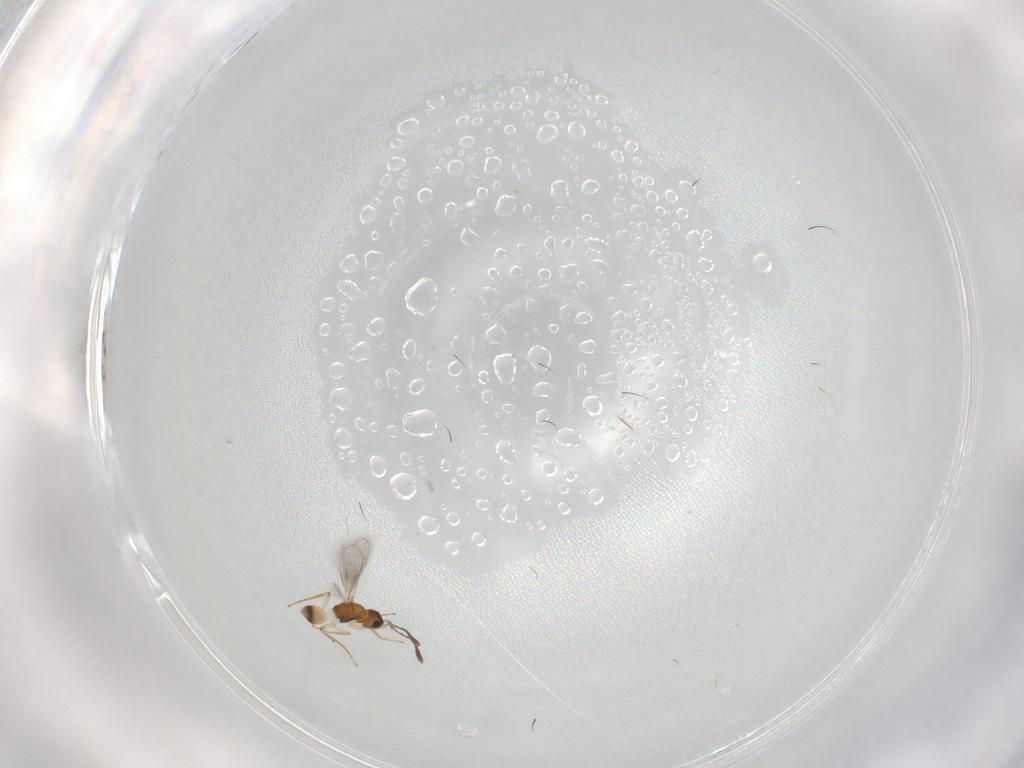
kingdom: Animalia
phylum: Arthropoda
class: Insecta
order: Hymenoptera
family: Mymaridae
